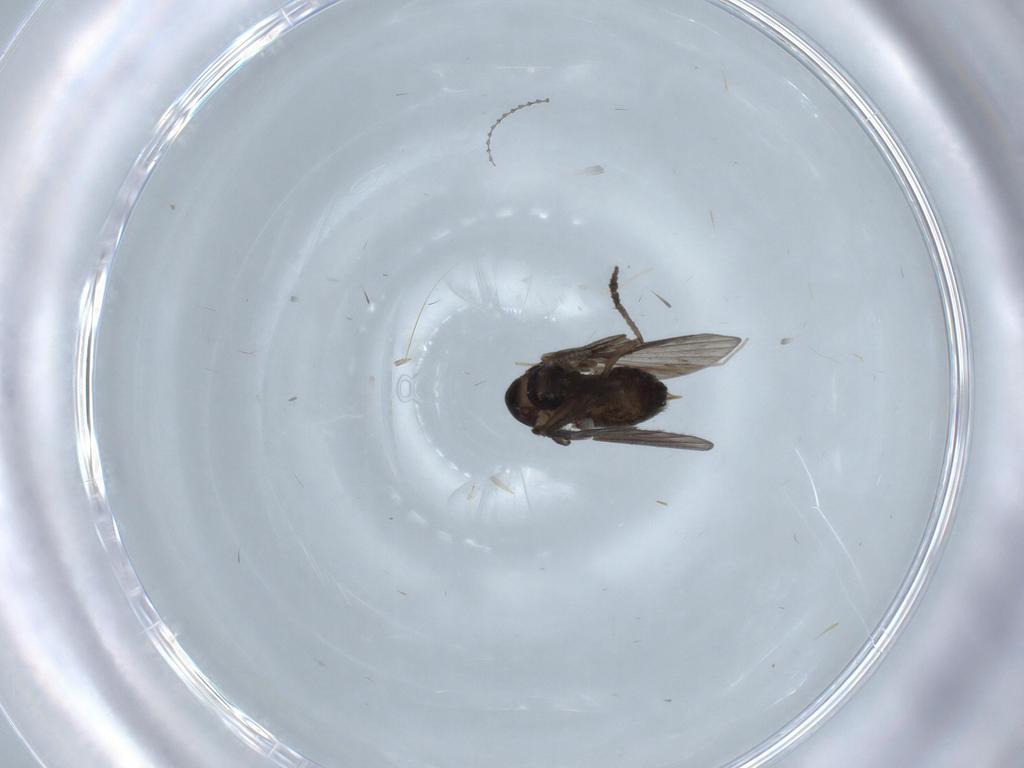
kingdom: Animalia
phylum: Arthropoda
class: Insecta
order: Diptera
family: Psychodidae
